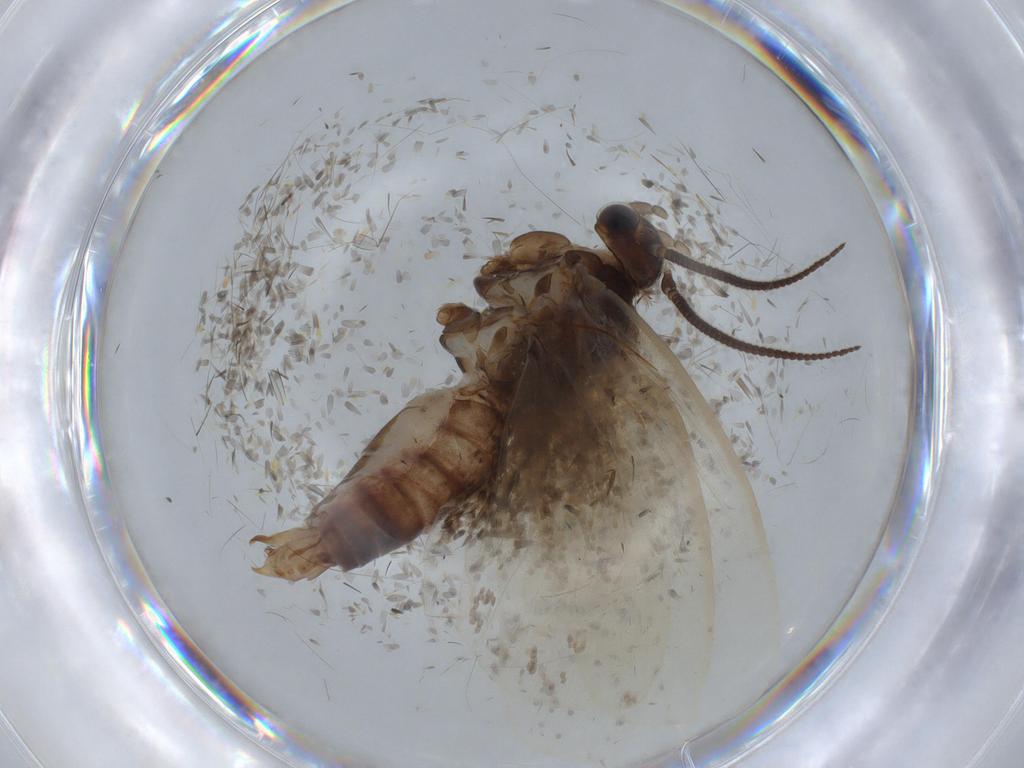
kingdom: Animalia
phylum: Arthropoda
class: Insecta
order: Lepidoptera
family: Tineidae
